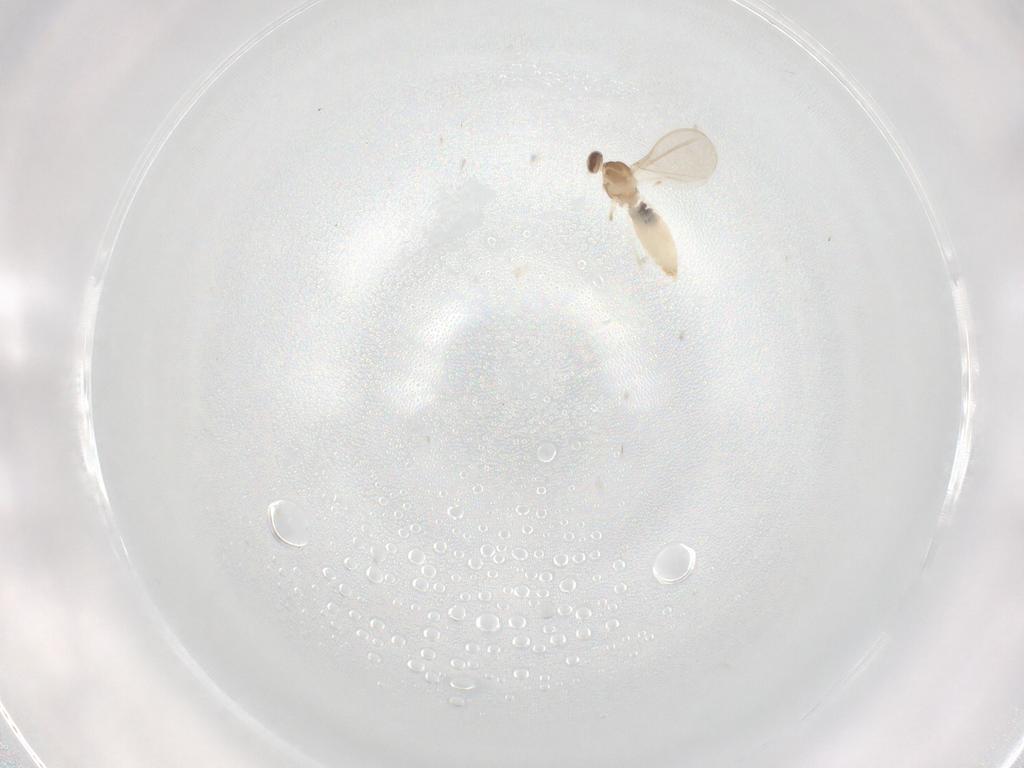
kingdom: Animalia
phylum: Arthropoda
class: Insecta
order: Diptera
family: Cecidomyiidae
